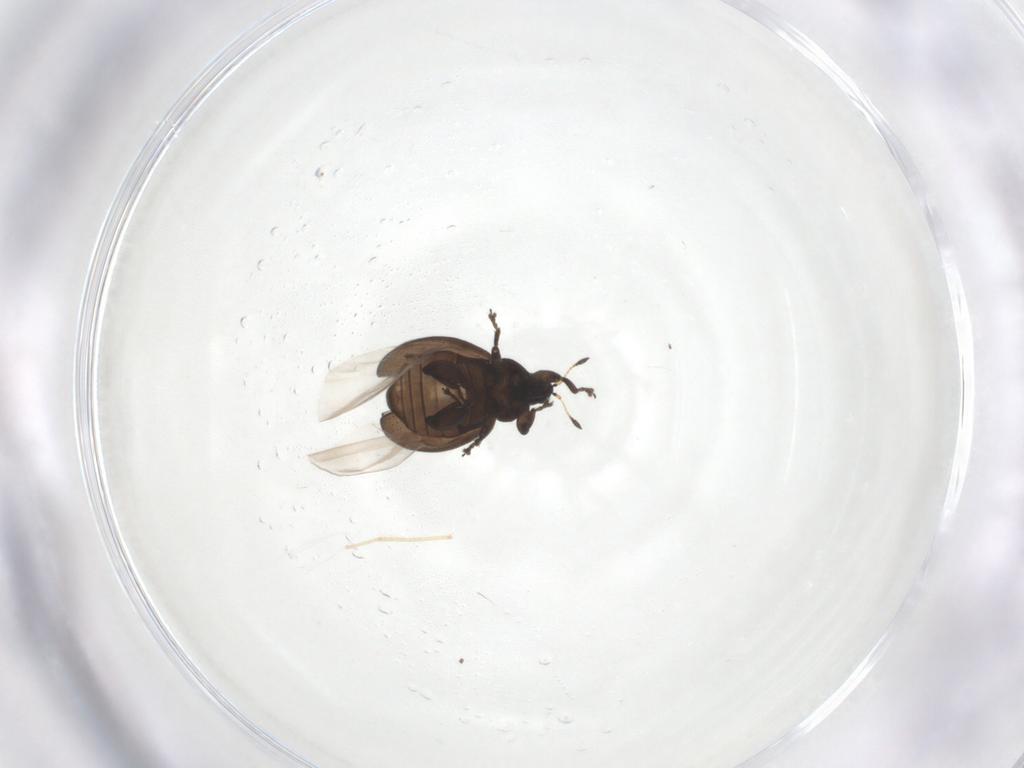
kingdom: Animalia
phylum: Arthropoda
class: Insecta
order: Coleoptera
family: Curculionidae
